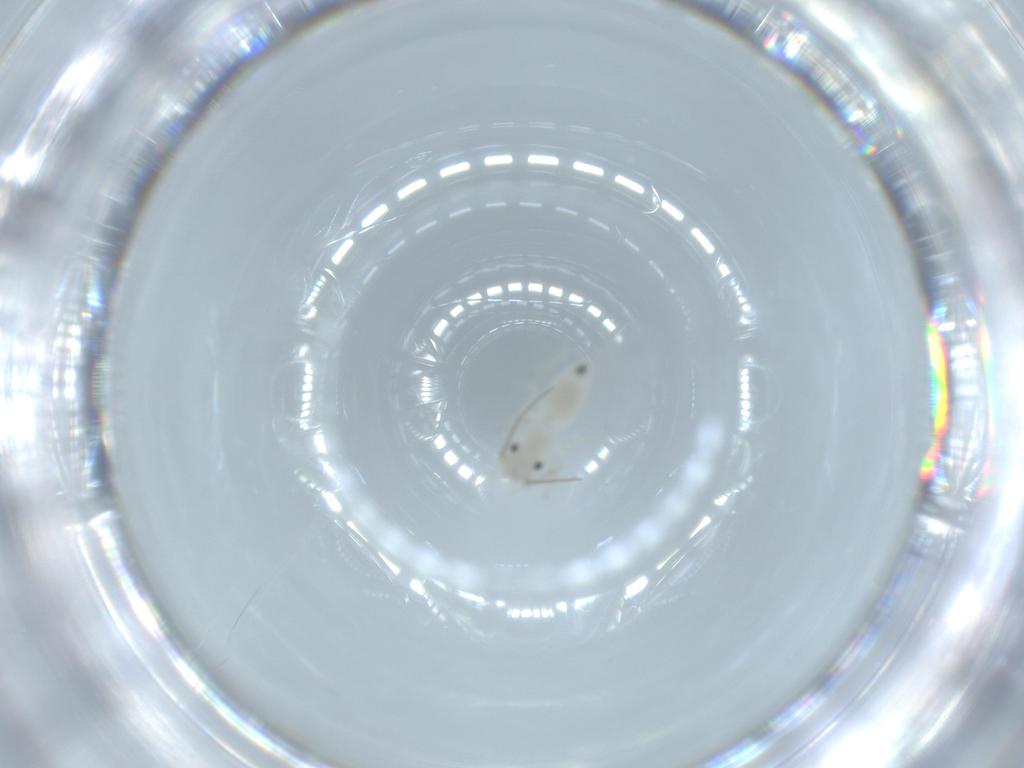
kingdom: Animalia
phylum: Arthropoda
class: Insecta
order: Psocodea
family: Caeciliusidae
